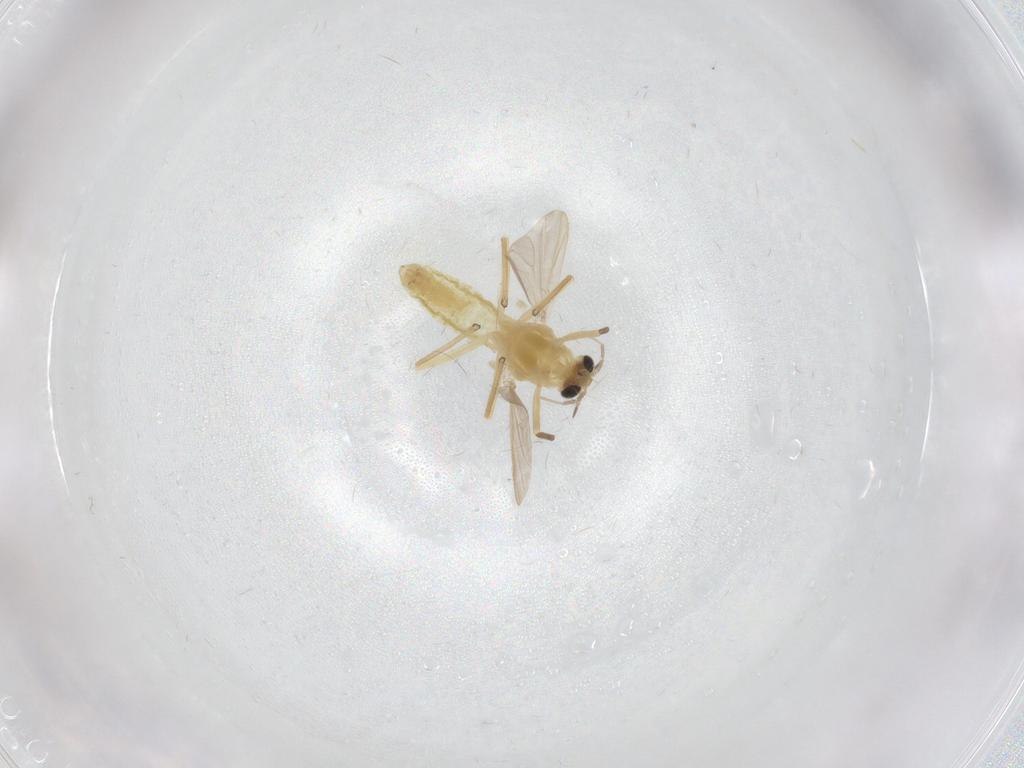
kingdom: Animalia
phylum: Arthropoda
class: Insecta
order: Diptera
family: Chironomidae
